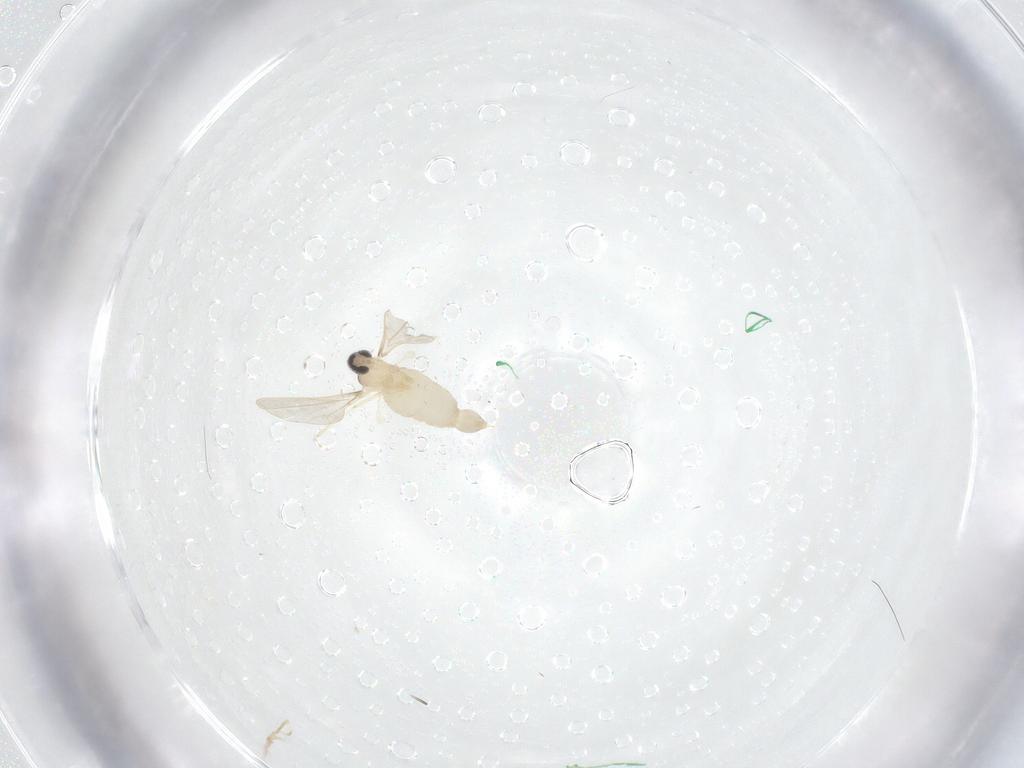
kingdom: Animalia
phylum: Arthropoda
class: Insecta
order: Diptera
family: Cecidomyiidae
